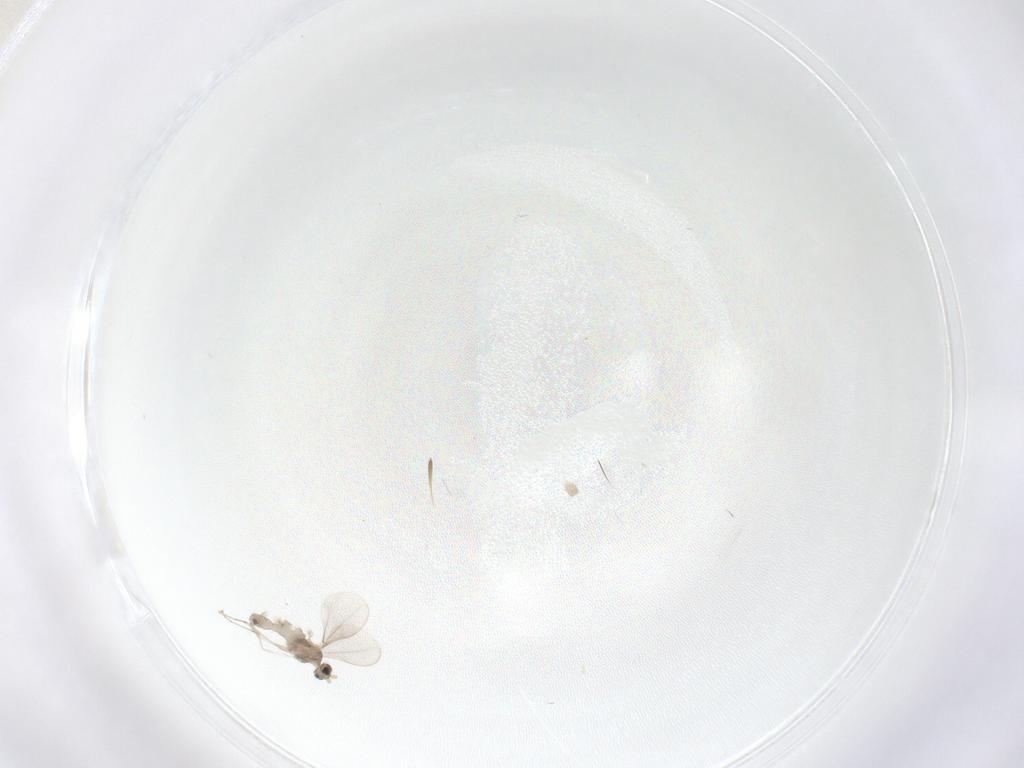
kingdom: Animalia
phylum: Arthropoda
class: Insecta
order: Diptera
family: Cecidomyiidae
